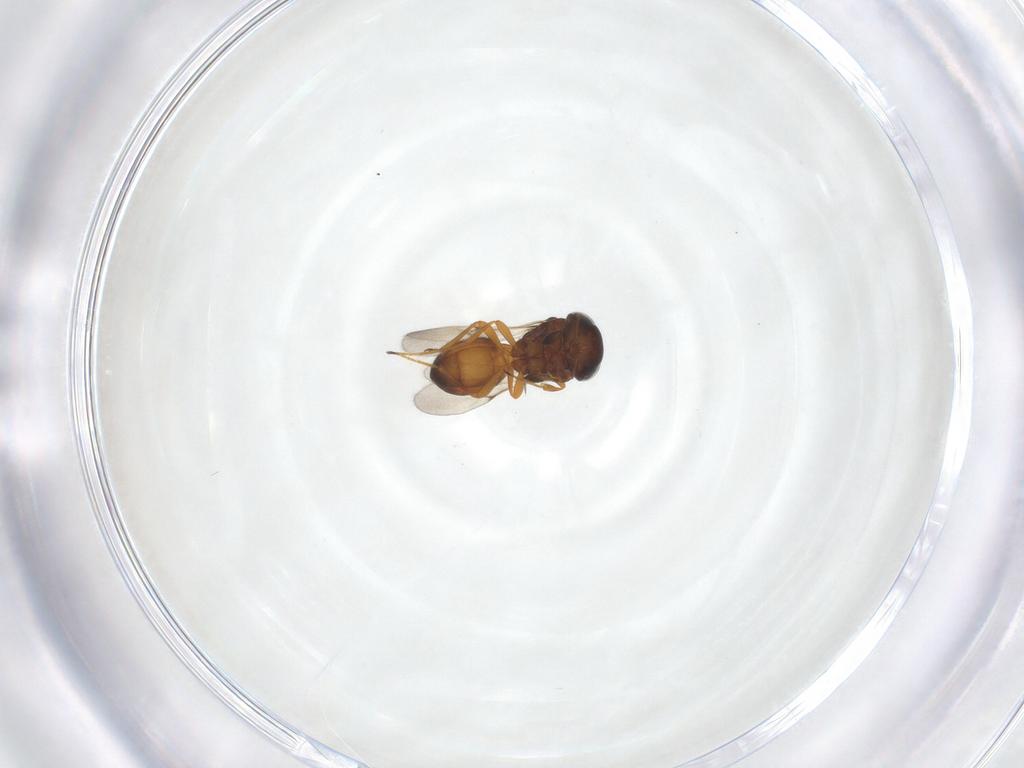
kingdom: Animalia
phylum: Arthropoda
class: Arachnida
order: Araneae
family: Pholcidae
